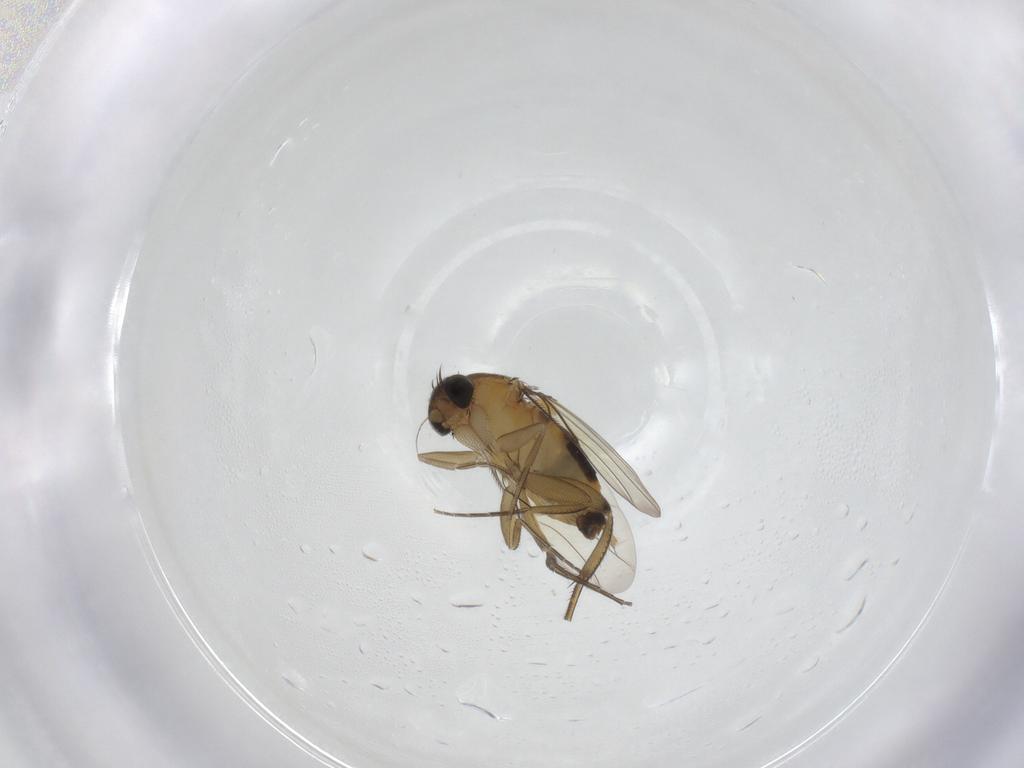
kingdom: Animalia
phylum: Arthropoda
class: Insecta
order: Diptera
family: Phoridae
